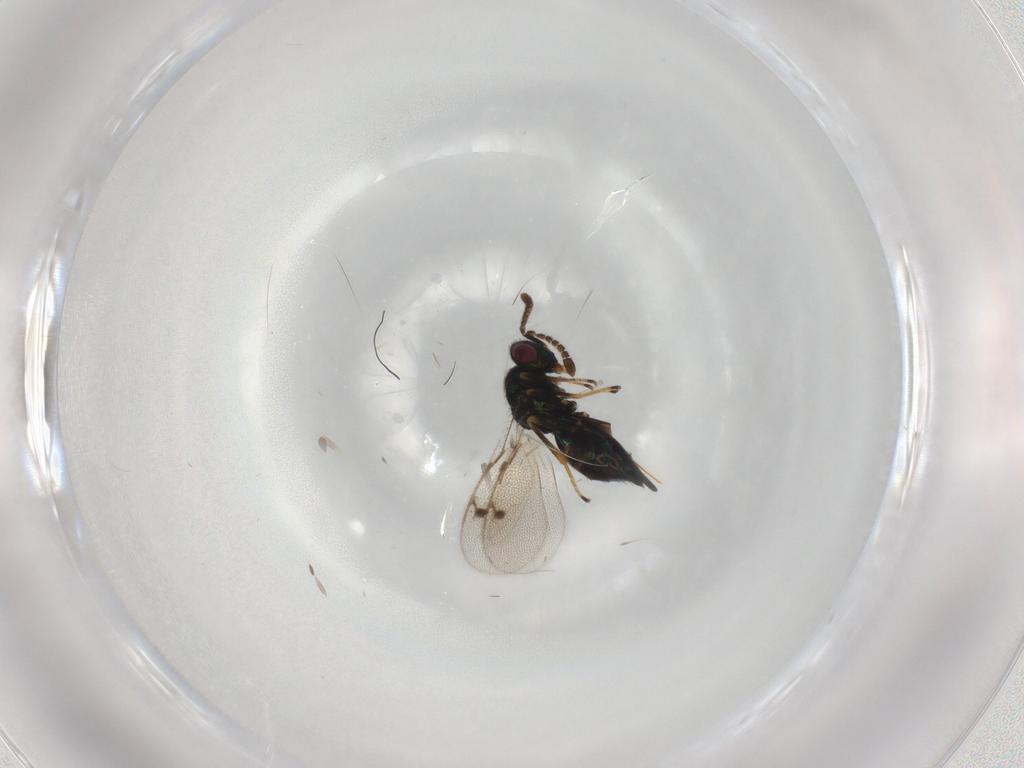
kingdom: Animalia
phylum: Arthropoda
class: Insecta
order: Hymenoptera
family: Pirenidae
